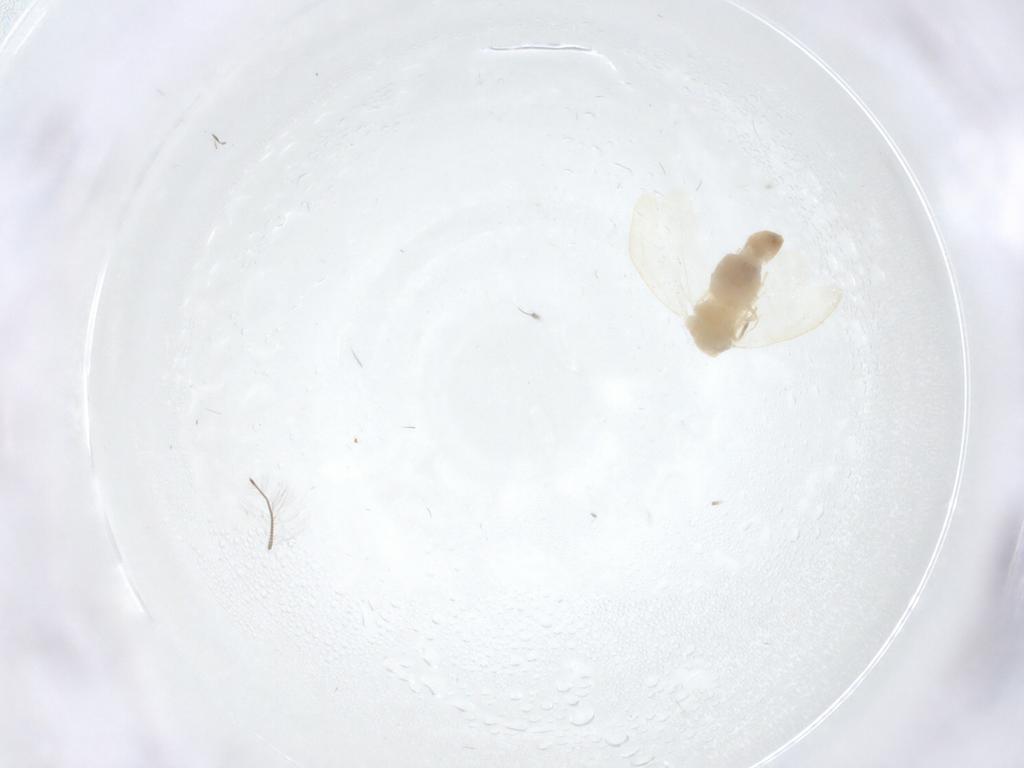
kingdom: Animalia
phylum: Arthropoda
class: Insecta
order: Hemiptera
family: Aleyrodidae
